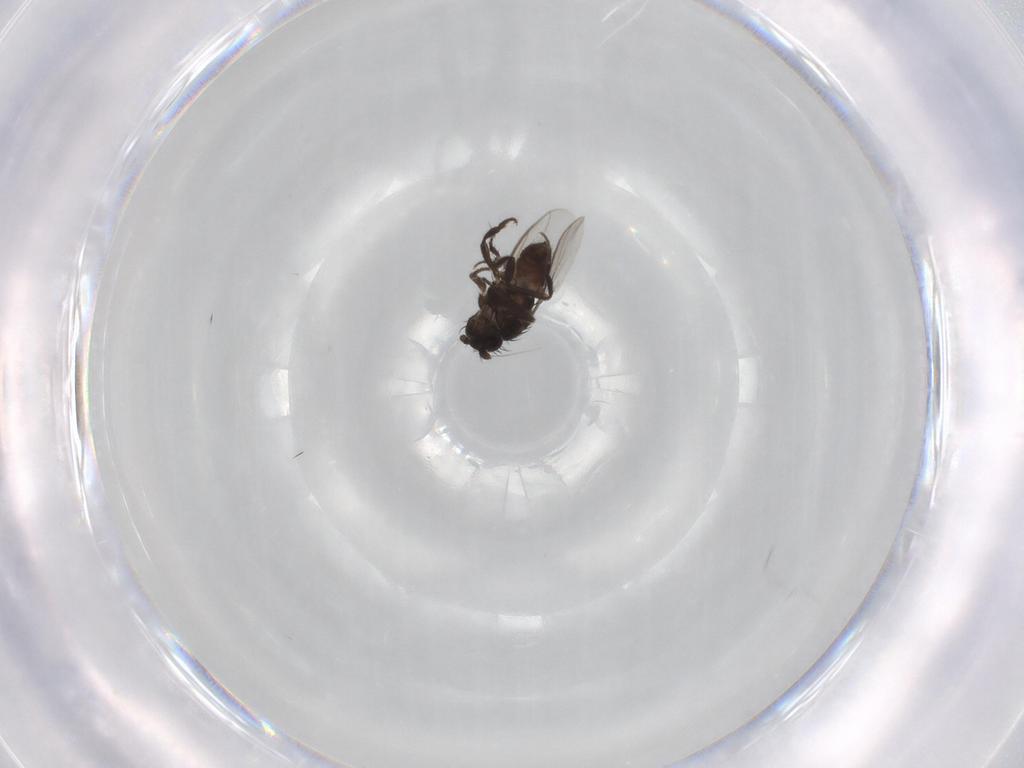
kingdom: Animalia
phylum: Arthropoda
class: Insecta
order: Diptera
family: Sphaeroceridae
